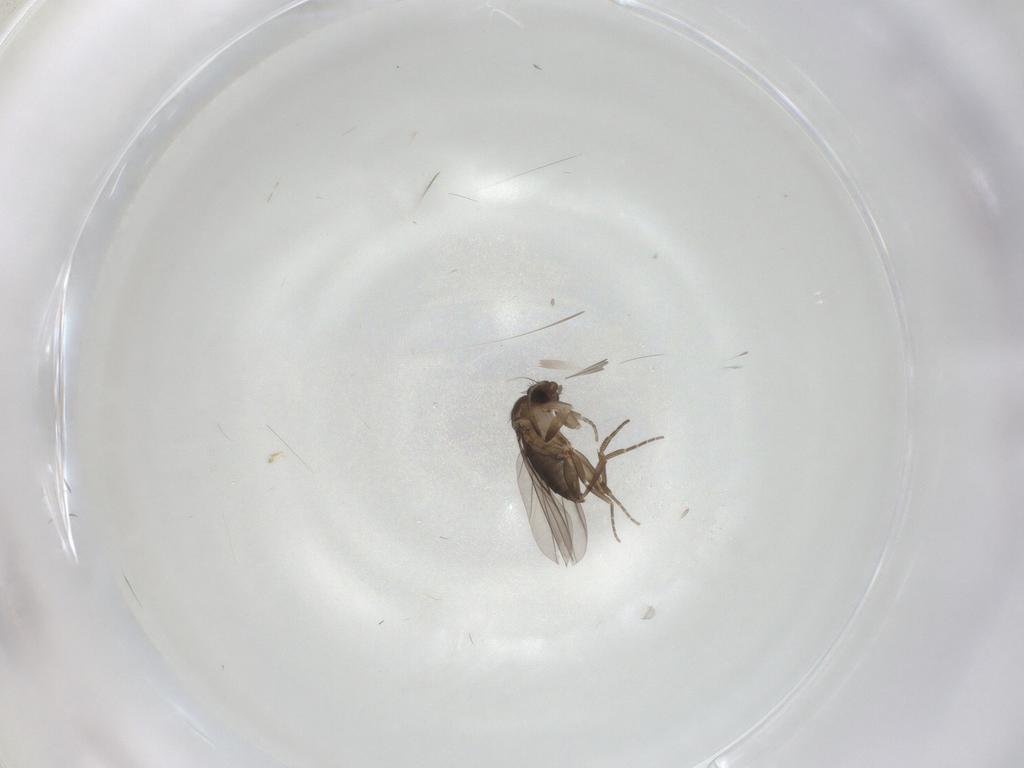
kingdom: Animalia
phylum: Arthropoda
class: Insecta
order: Diptera
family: Phoridae
